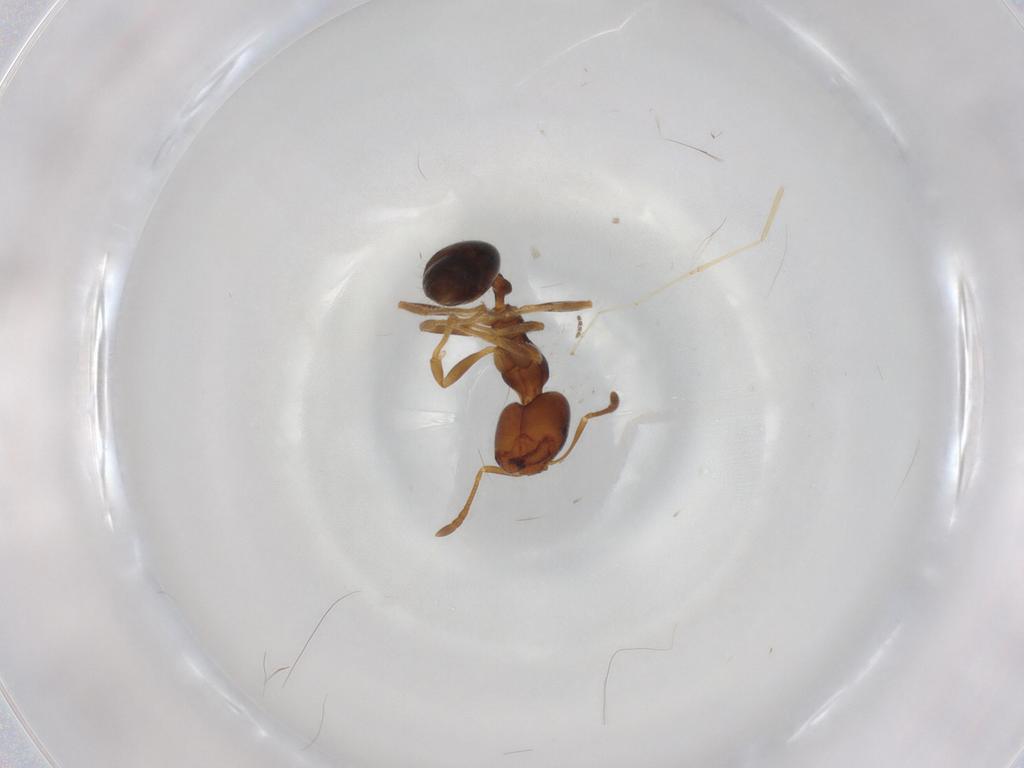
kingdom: Animalia
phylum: Arthropoda
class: Insecta
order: Hymenoptera
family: Formicidae
